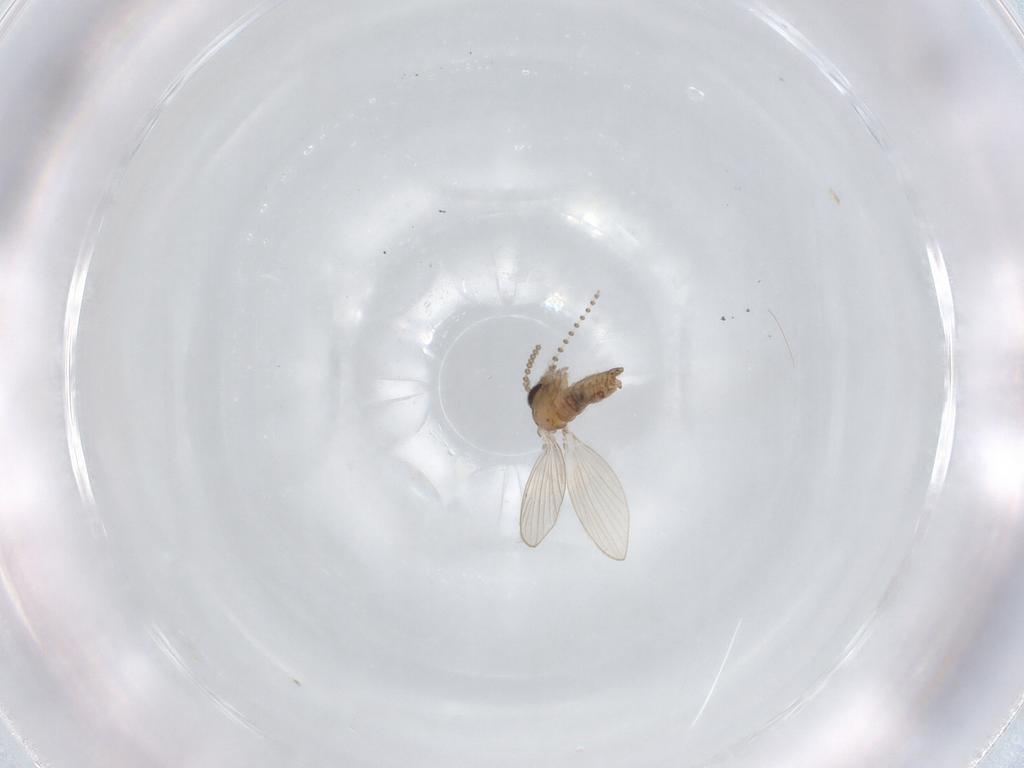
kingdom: Animalia
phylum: Arthropoda
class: Insecta
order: Diptera
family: Psychodidae
